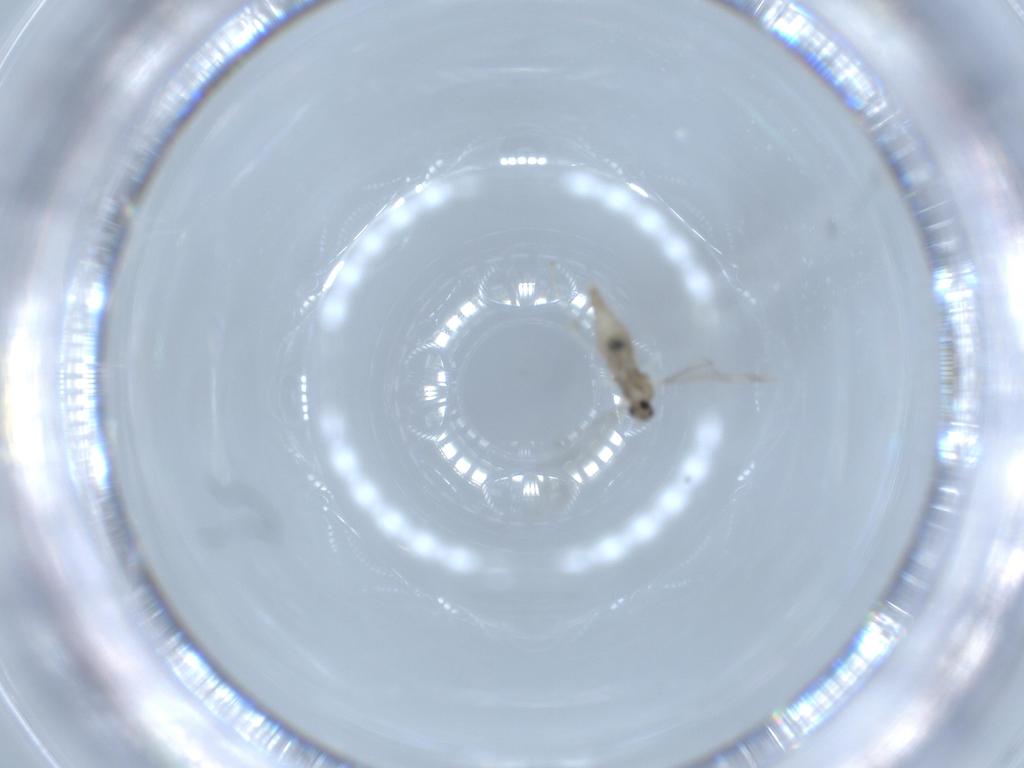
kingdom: Animalia
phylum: Arthropoda
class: Insecta
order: Diptera
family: Cecidomyiidae
